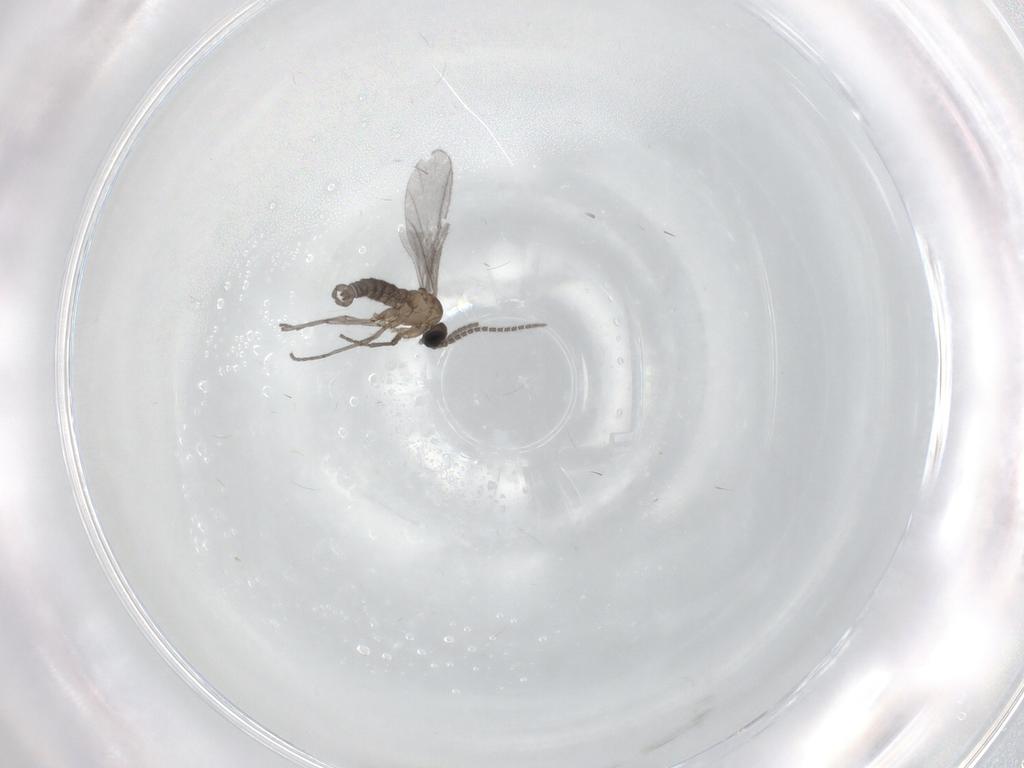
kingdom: Animalia
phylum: Arthropoda
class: Insecta
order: Diptera
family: Sciaridae
